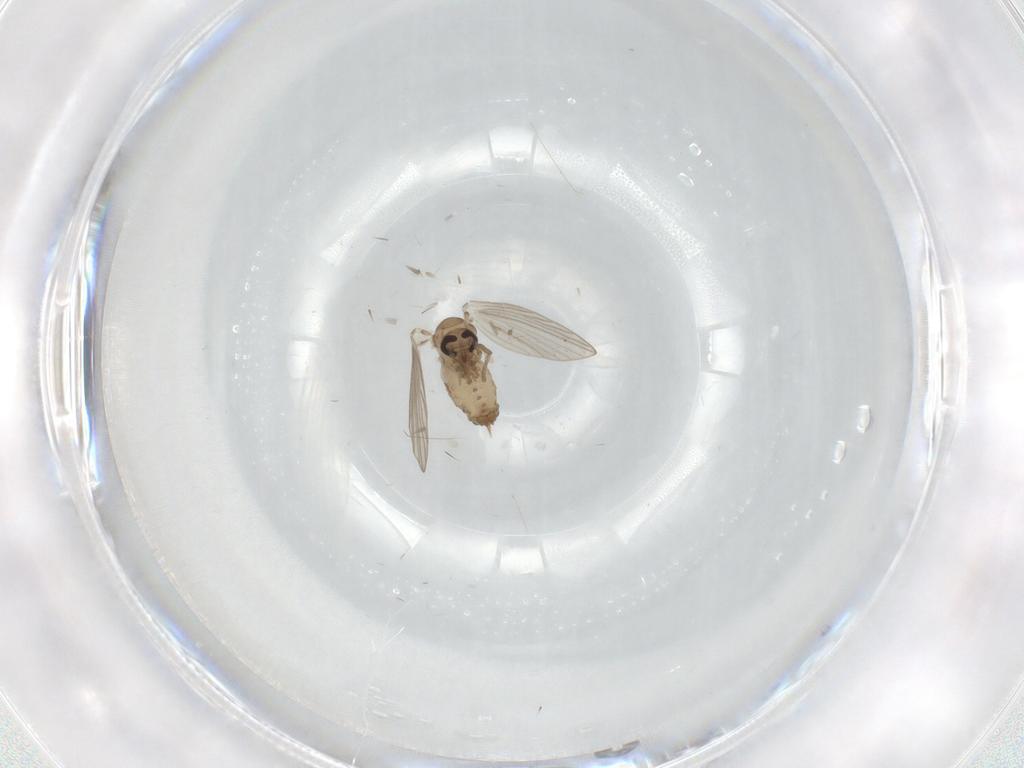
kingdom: Animalia
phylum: Arthropoda
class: Insecta
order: Diptera
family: Psychodidae
